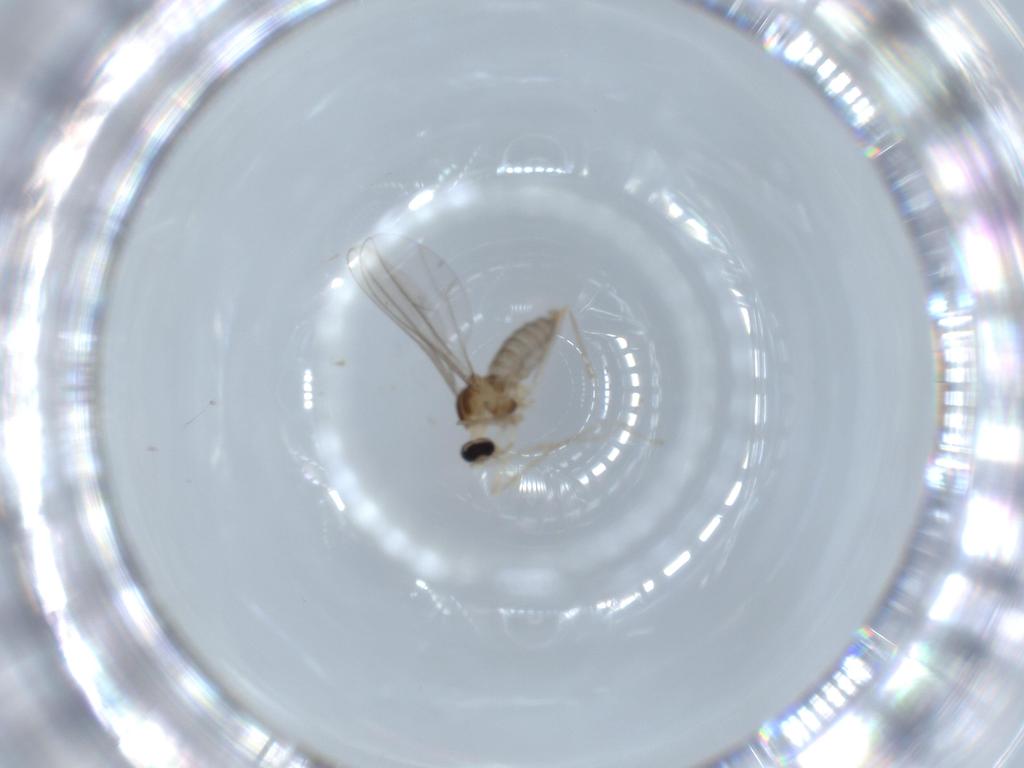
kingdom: Animalia
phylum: Arthropoda
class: Insecta
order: Diptera
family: Cecidomyiidae
